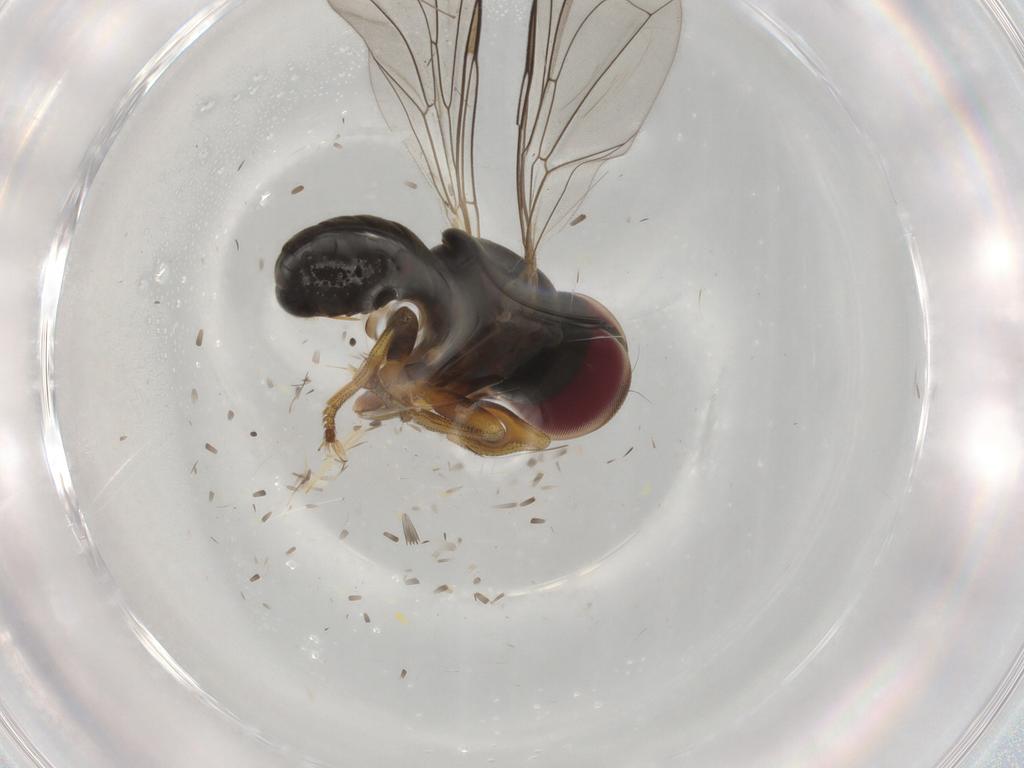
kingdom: Animalia
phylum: Arthropoda
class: Insecta
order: Diptera
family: Pipunculidae
